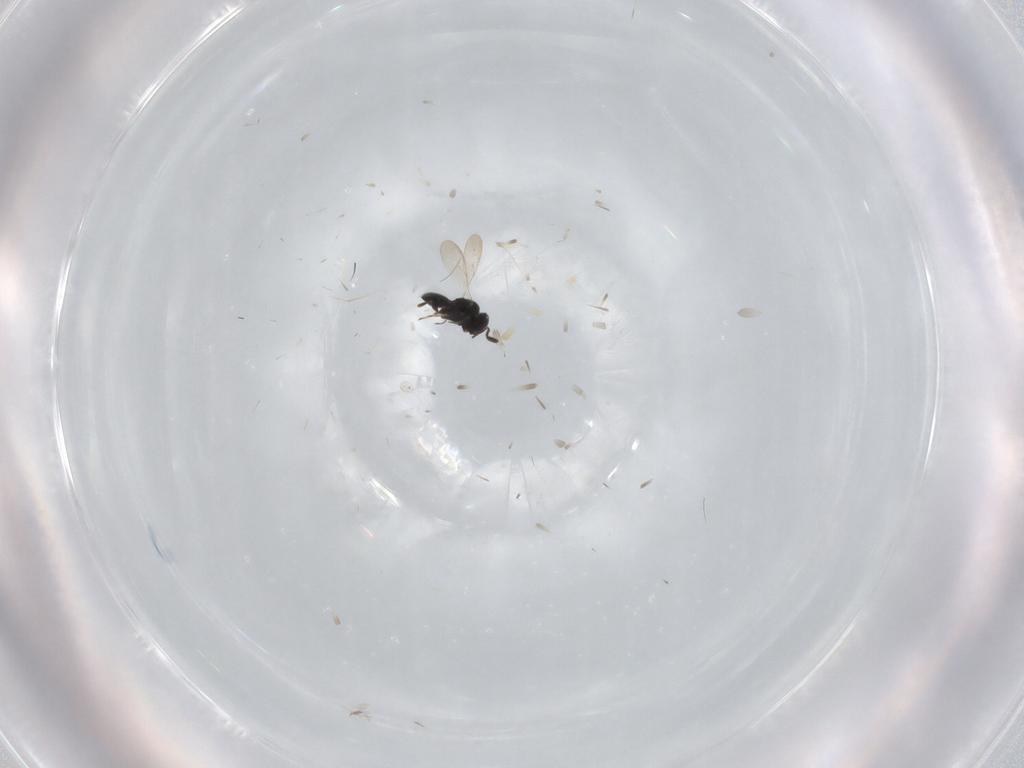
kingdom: Animalia
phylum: Arthropoda
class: Insecta
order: Hymenoptera
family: Scelionidae
